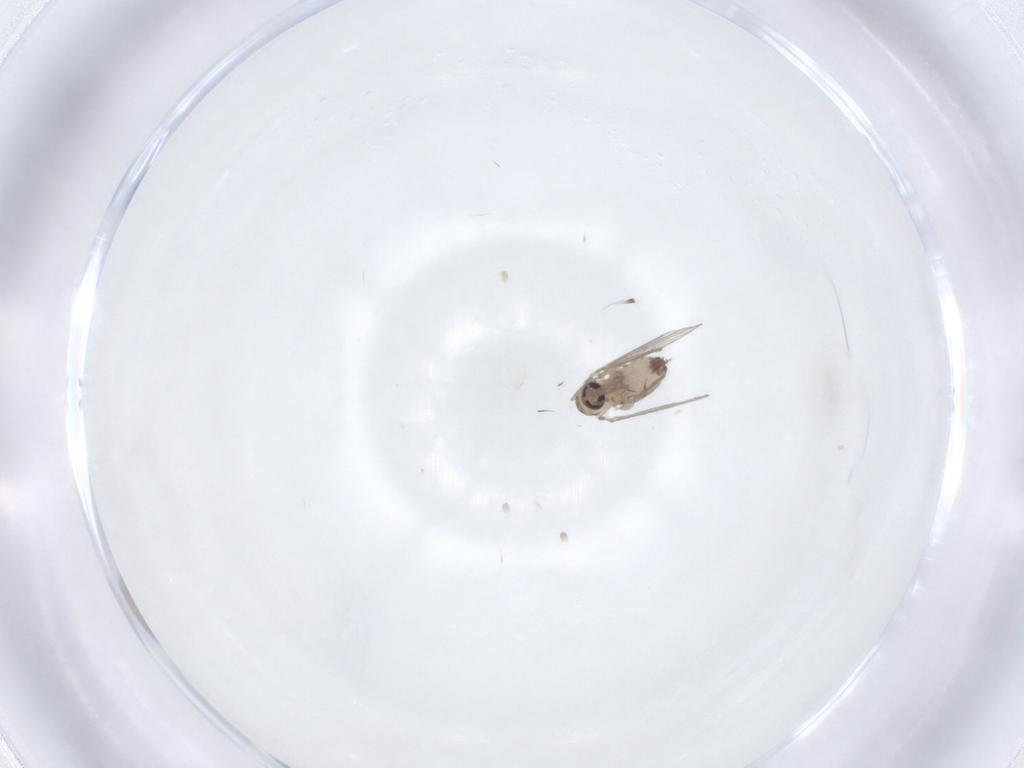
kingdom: Animalia
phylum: Arthropoda
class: Insecta
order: Diptera
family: Psychodidae
